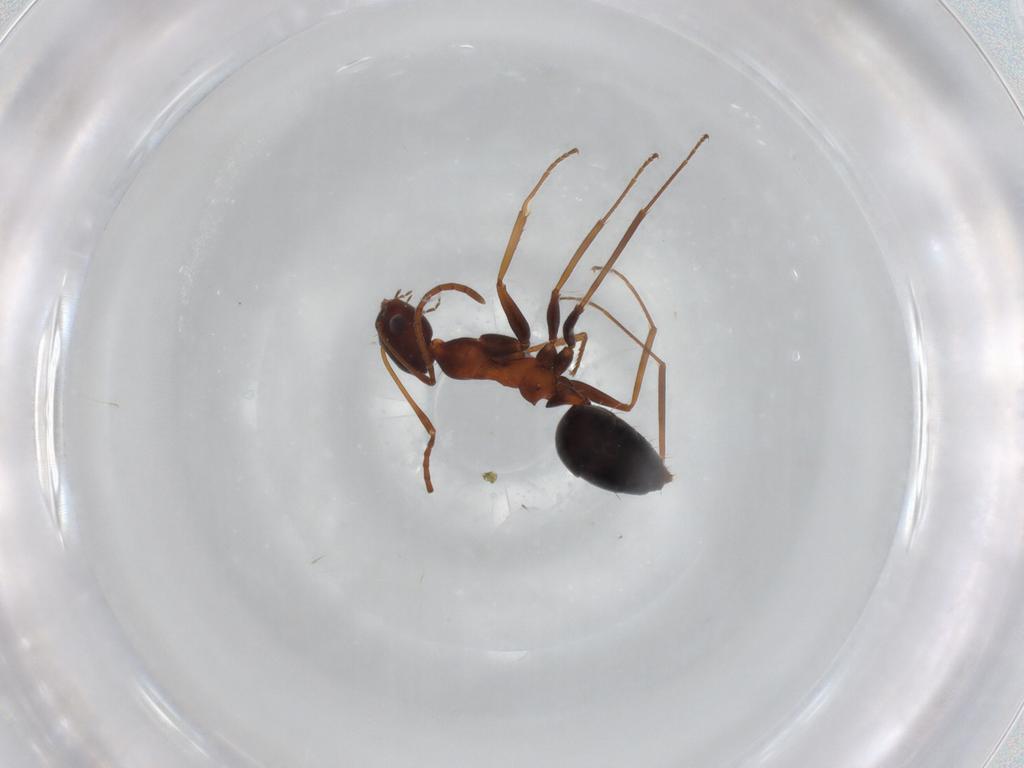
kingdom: Animalia
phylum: Arthropoda
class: Insecta
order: Hymenoptera
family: Formicidae
